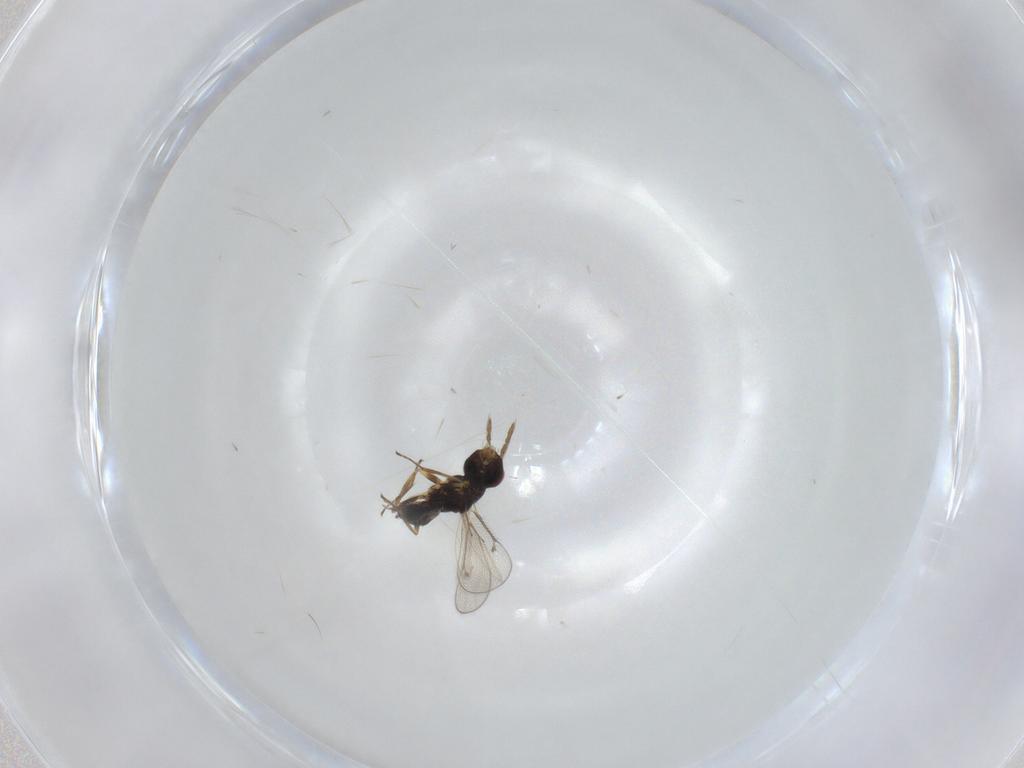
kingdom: Animalia
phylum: Arthropoda
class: Insecta
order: Hymenoptera
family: Eulophidae
